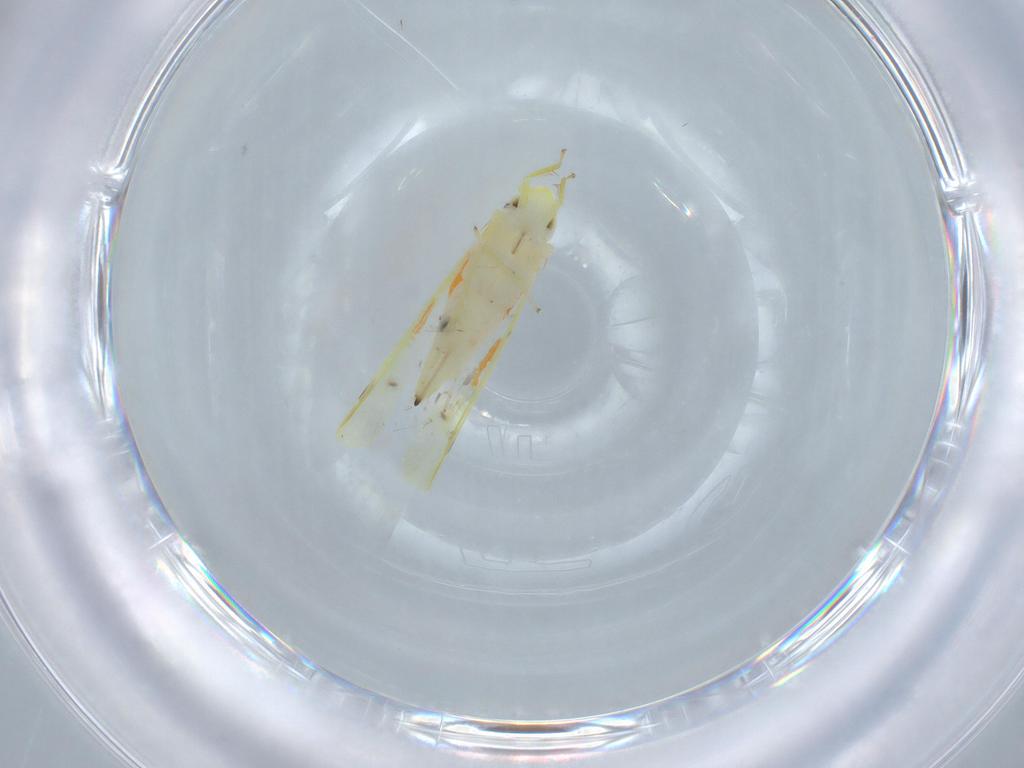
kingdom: Animalia
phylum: Arthropoda
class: Insecta
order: Hemiptera
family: Cicadellidae
